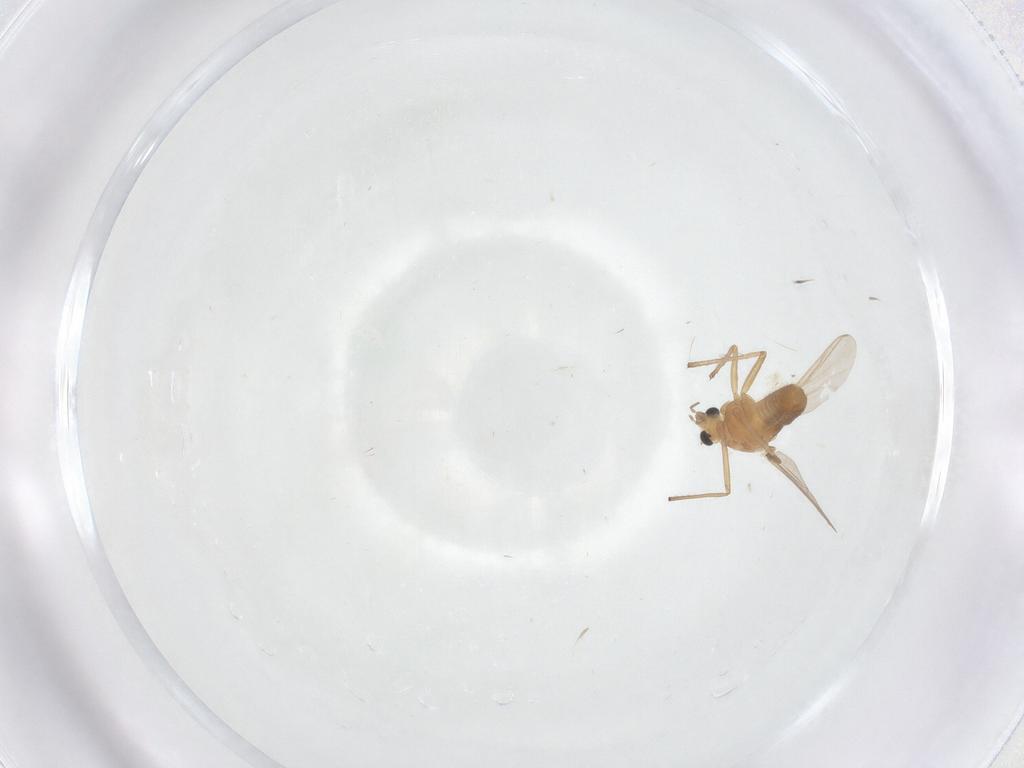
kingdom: Animalia
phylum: Arthropoda
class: Insecta
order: Diptera
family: Chironomidae
